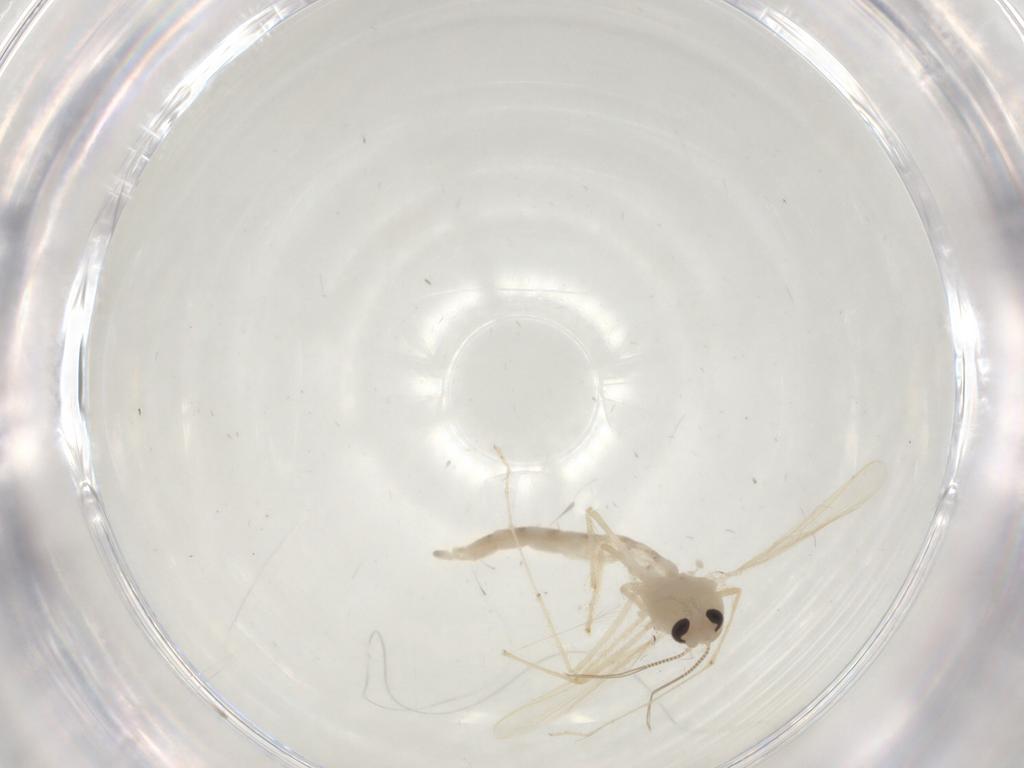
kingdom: Animalia
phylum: Arthropoda
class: Insecta
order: Diptera
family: Chironomidae
